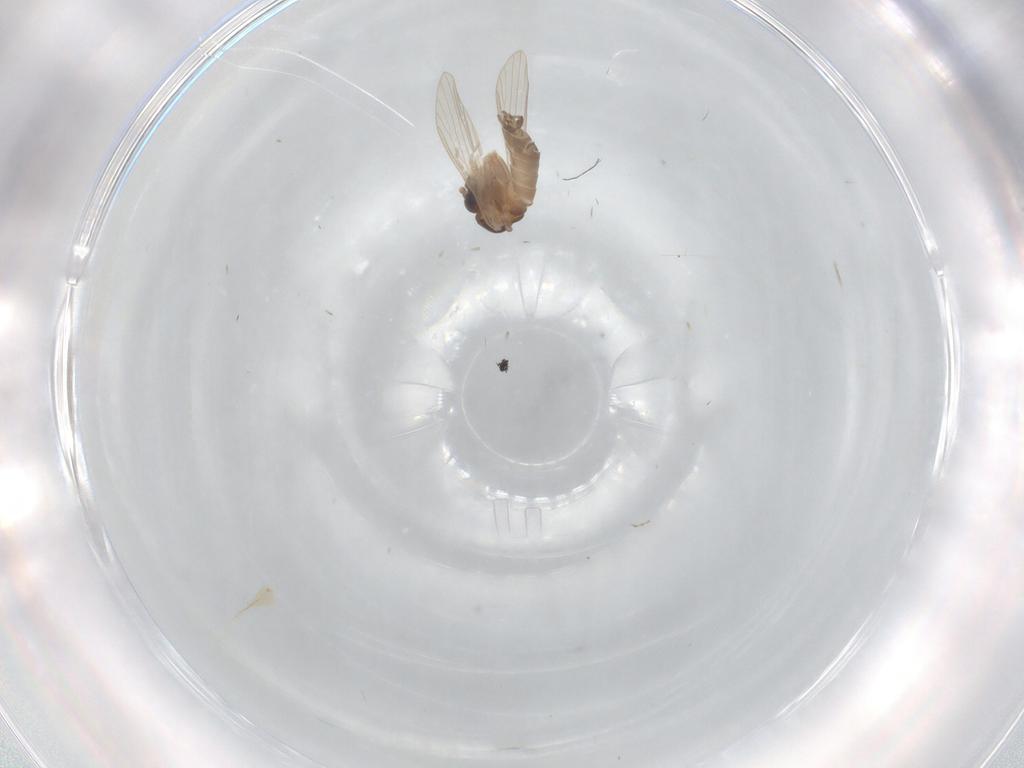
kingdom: Animalia
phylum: Arthropoda
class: Insecta
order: Diptera
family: Psychodidae
